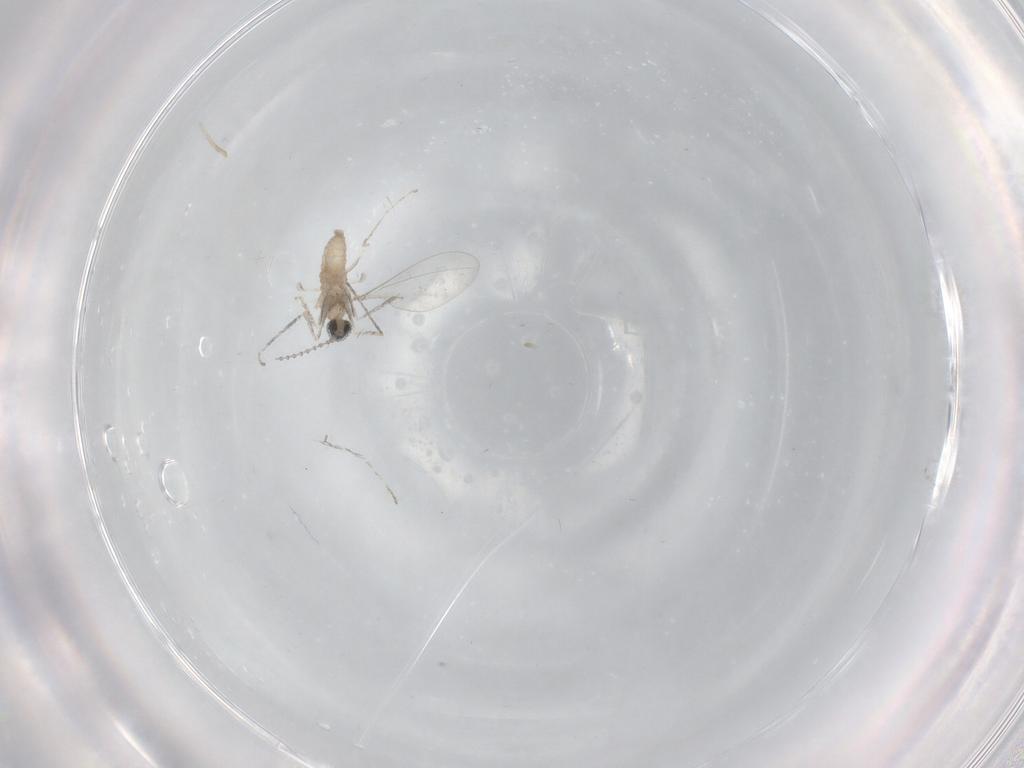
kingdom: Animalia
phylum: Arthropoda
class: Insecta
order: Diptera
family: Cecidomyiidae
